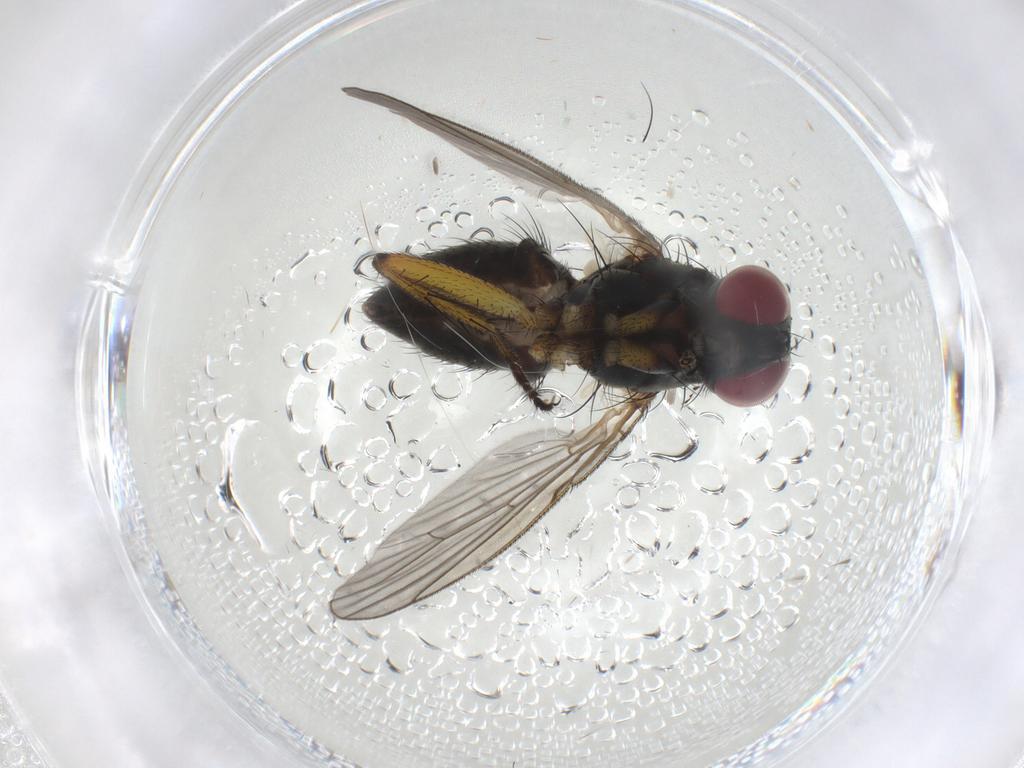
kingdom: Animalia
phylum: Arthropoda
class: Insecta
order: Diptera
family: Muscidae
